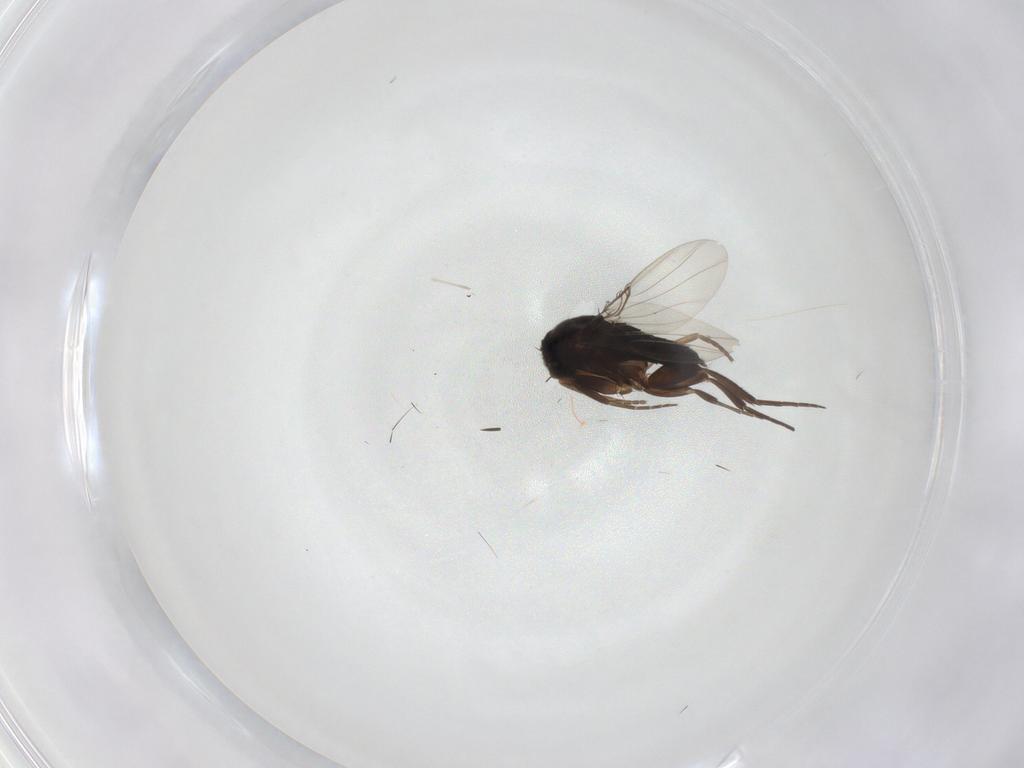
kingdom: Animalia
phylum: Arthropoda
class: Insecta
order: Diptera
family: Cecidomyiidae
